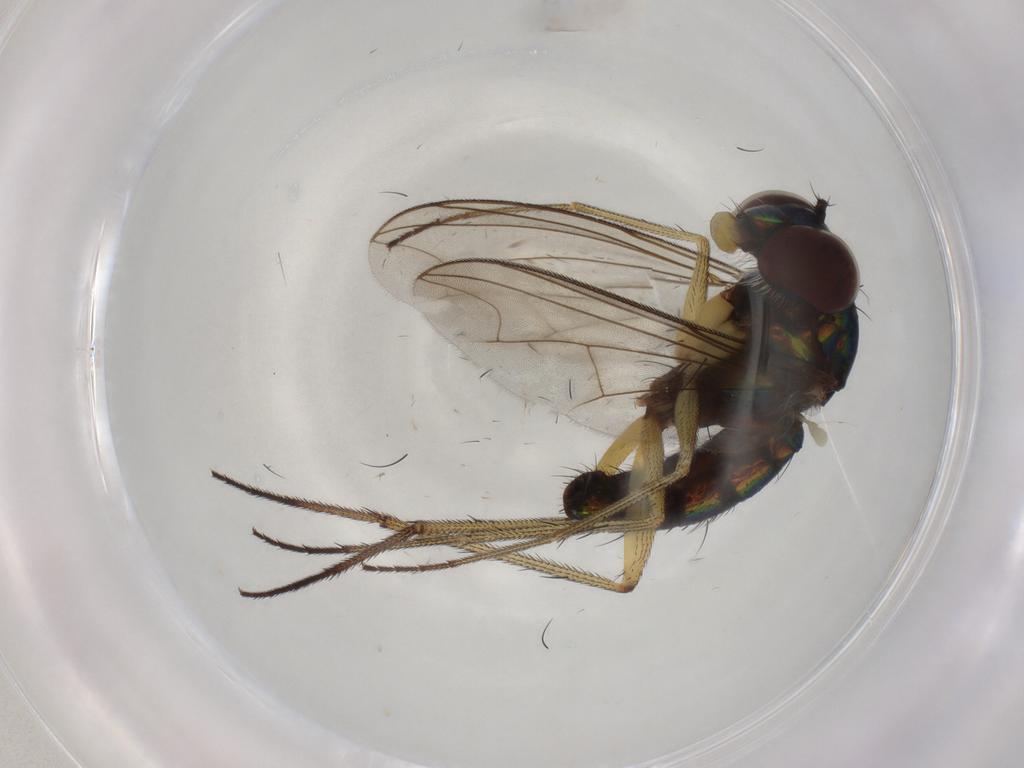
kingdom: Animalia
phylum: Arthropoda
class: Insecta
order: Diptera
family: Dolichopodidae
